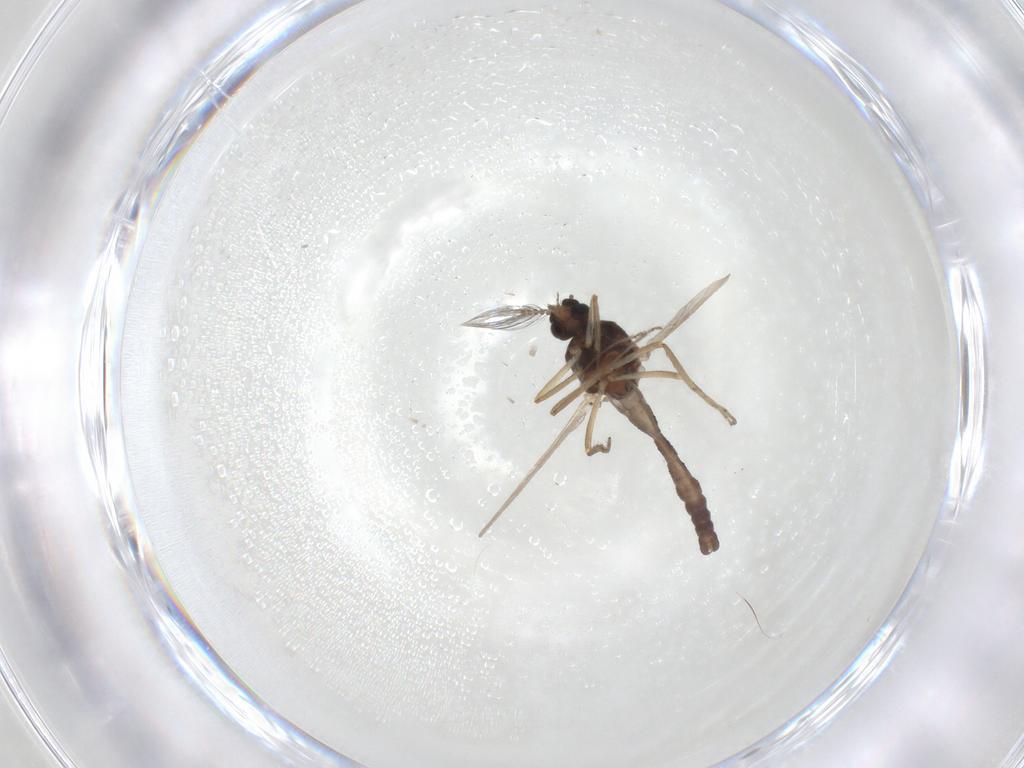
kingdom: Animalia
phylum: Arthropoda
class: Insecta
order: Diptera
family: Ceratopogonidae
